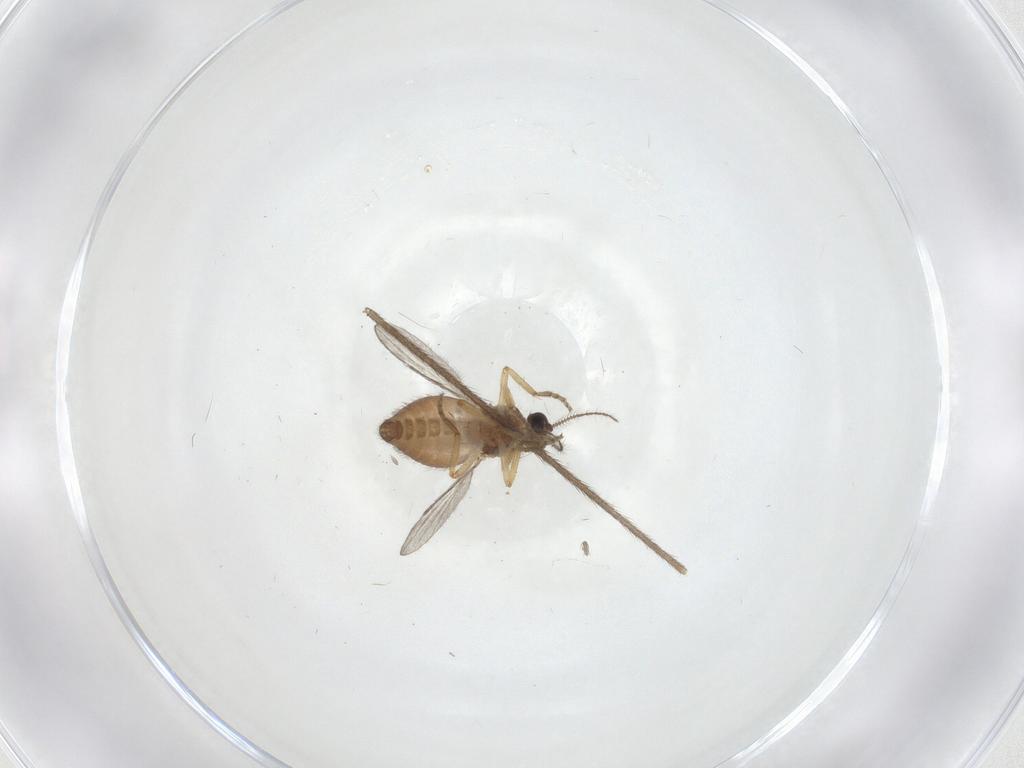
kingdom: Animalia
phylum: Arthropoda
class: Insecta
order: Diptera
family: Ceratopogonidae
